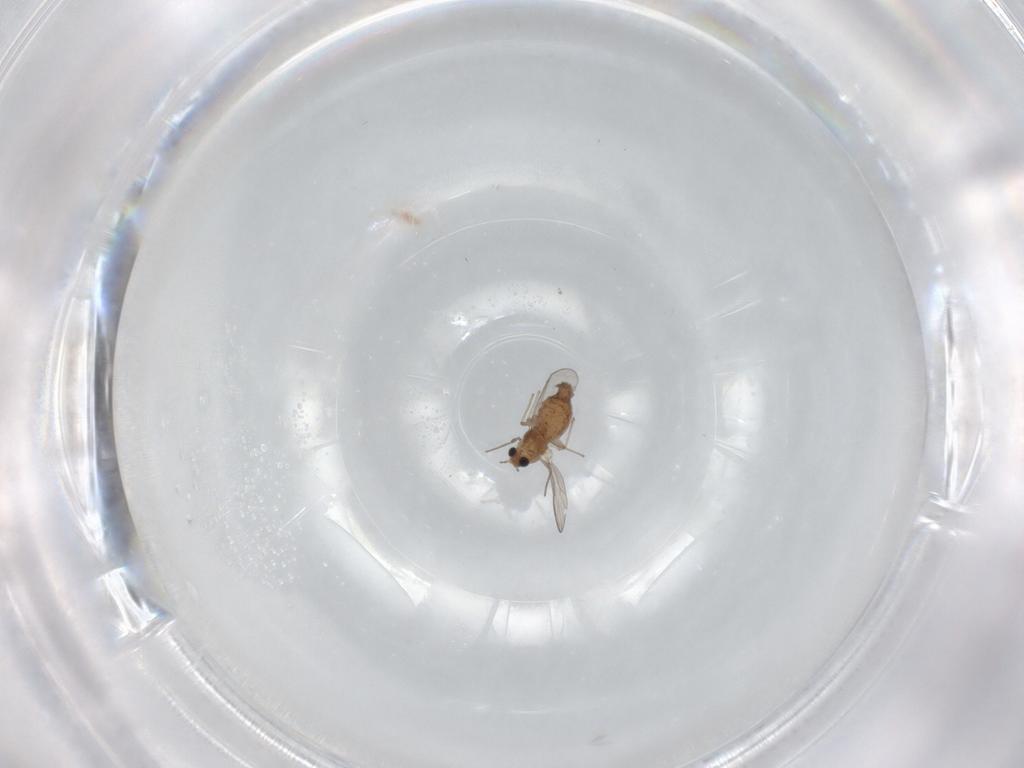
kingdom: Animalia
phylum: Arthropoda
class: Insecta
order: Diptera
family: Chironomidae
